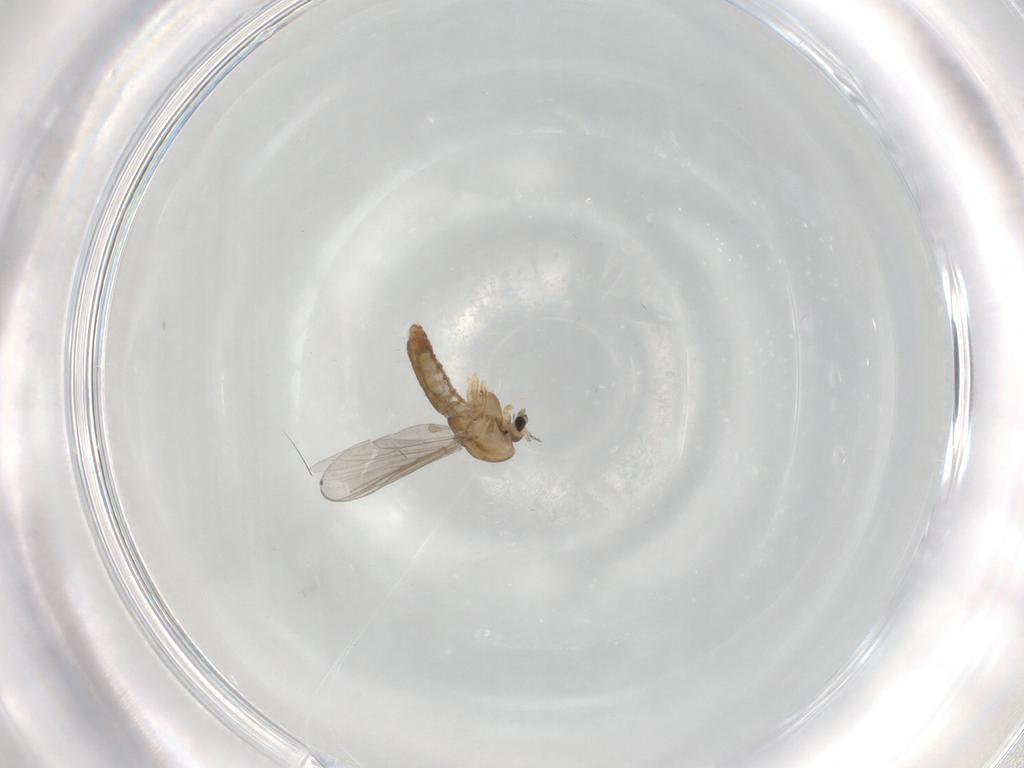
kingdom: Animalia
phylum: Arthropoda
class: Insecta
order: Diptera
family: Chironomidae
